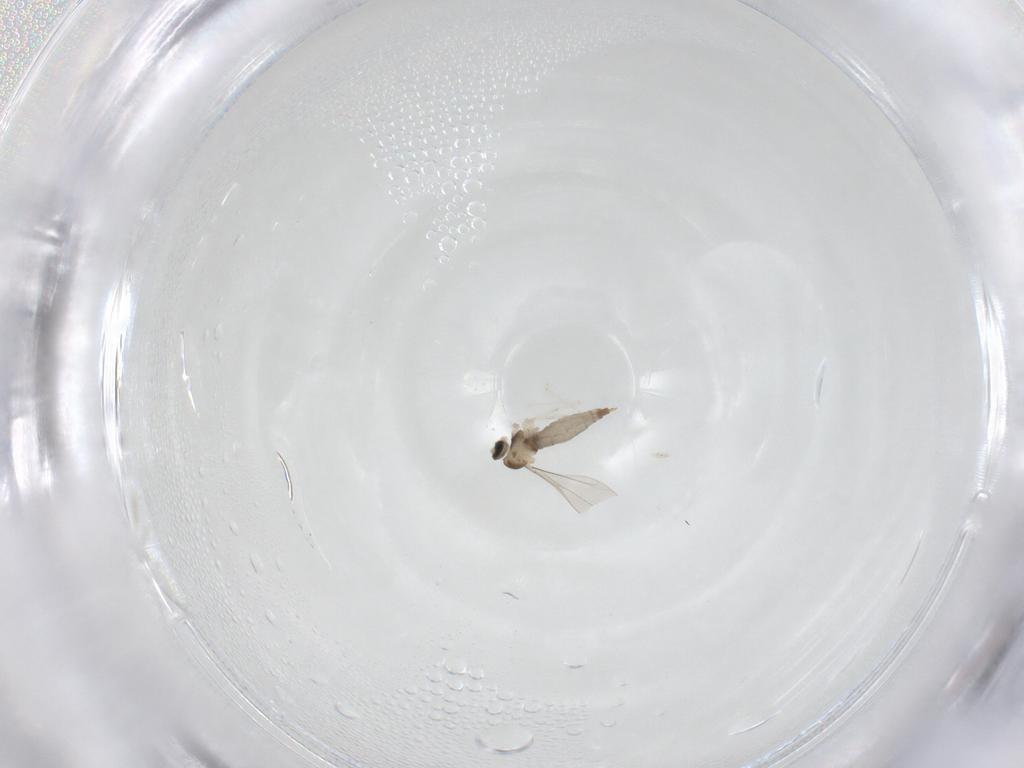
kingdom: Animalia
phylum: Arthropoda
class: Insecta
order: Diptera
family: Cecidomyiidae
